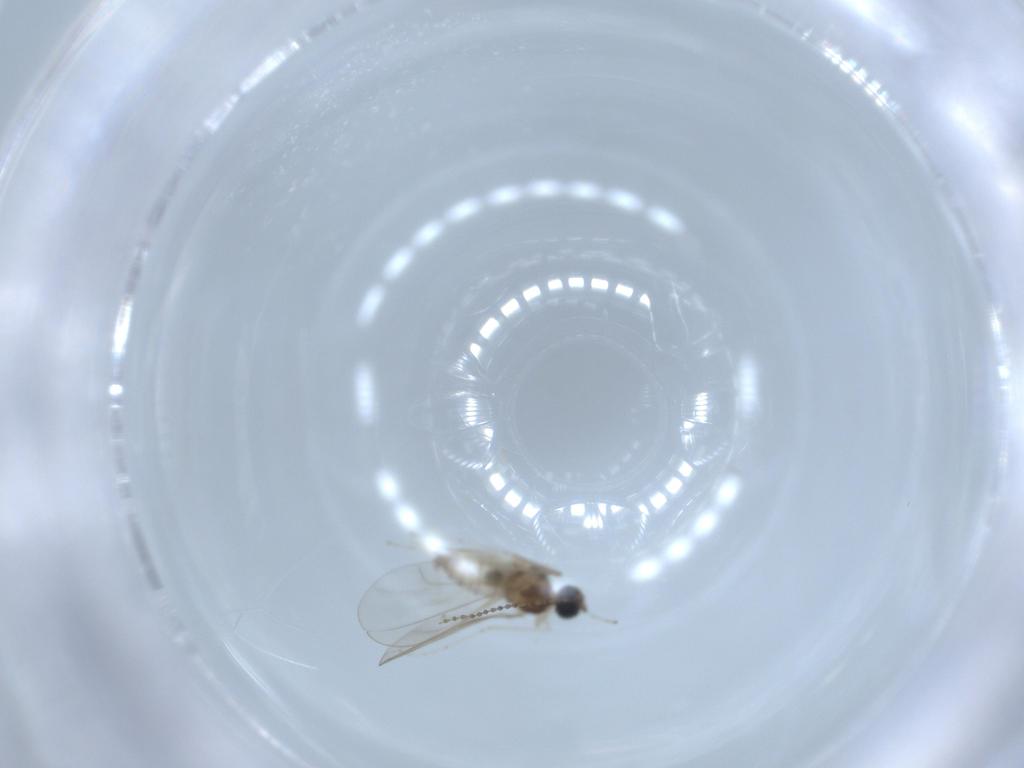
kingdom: Animalia
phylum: Arthropoda
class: Insecta
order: Diptera
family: Cecidomyiidae
